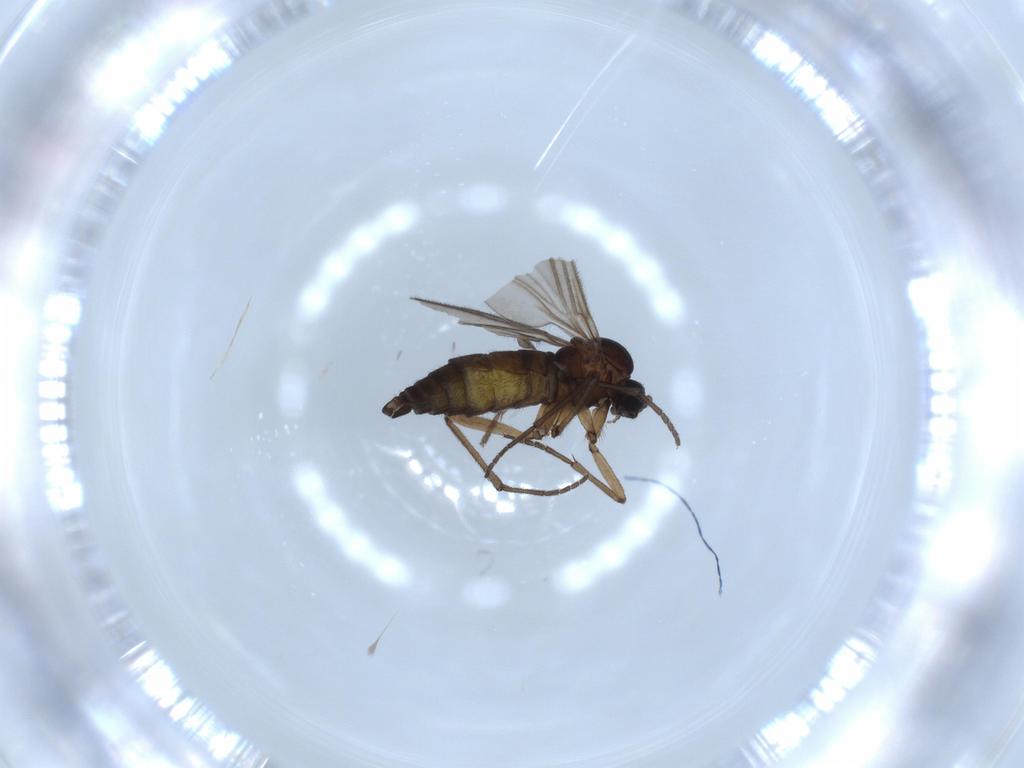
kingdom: Animalia
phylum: Arthropoda
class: Insecta
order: Diptera
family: Sciaridae
